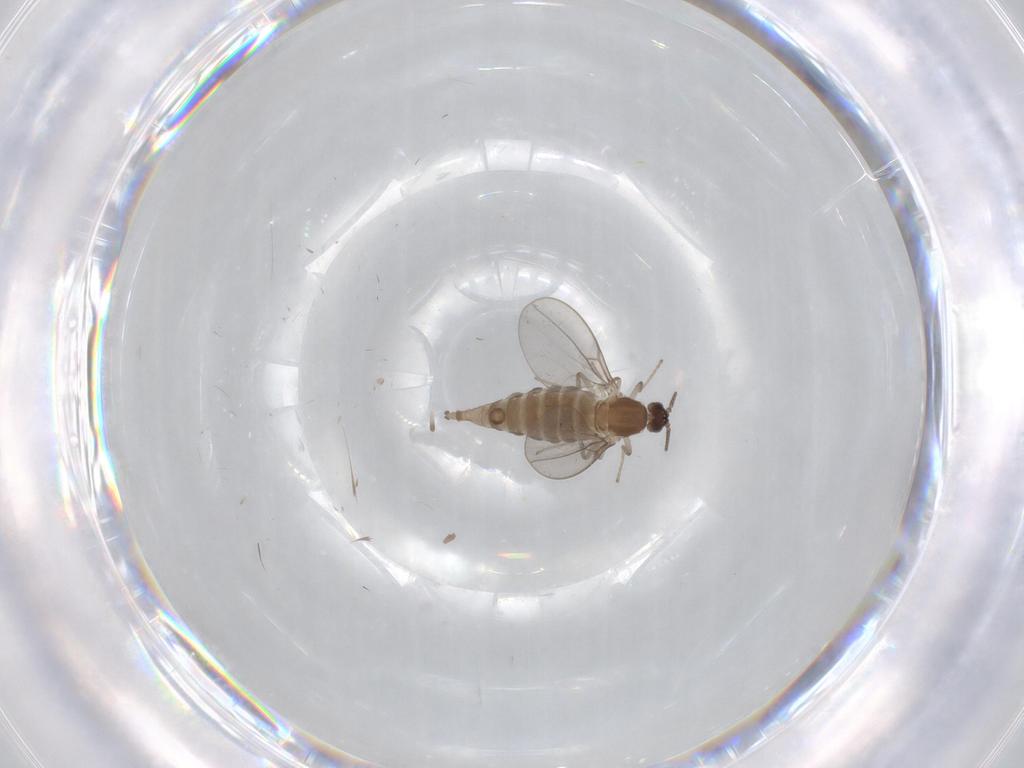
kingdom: Animalia
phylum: Arthropoda
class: Insecta
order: Diptera
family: Cecidomyiidae
